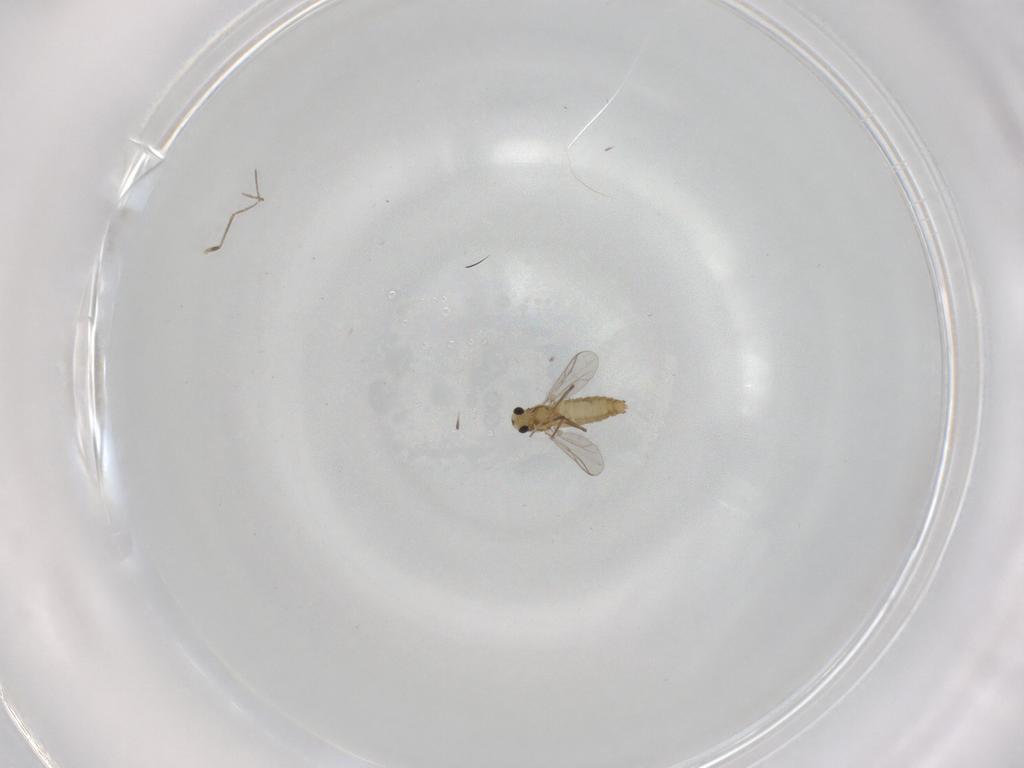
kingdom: Animalia
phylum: Arthropoda
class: Insecta
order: Diptera
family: Chironomidae
